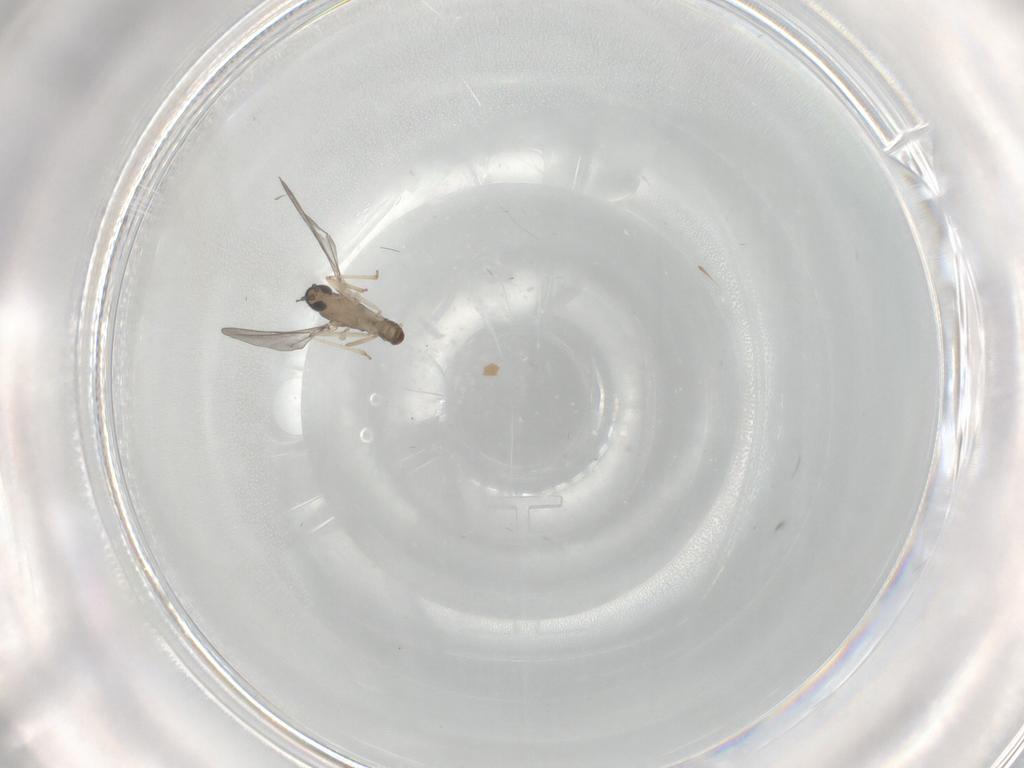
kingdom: Animalia
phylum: Arthropoda
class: Insecta
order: Diptera
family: Cecidomyiidae
